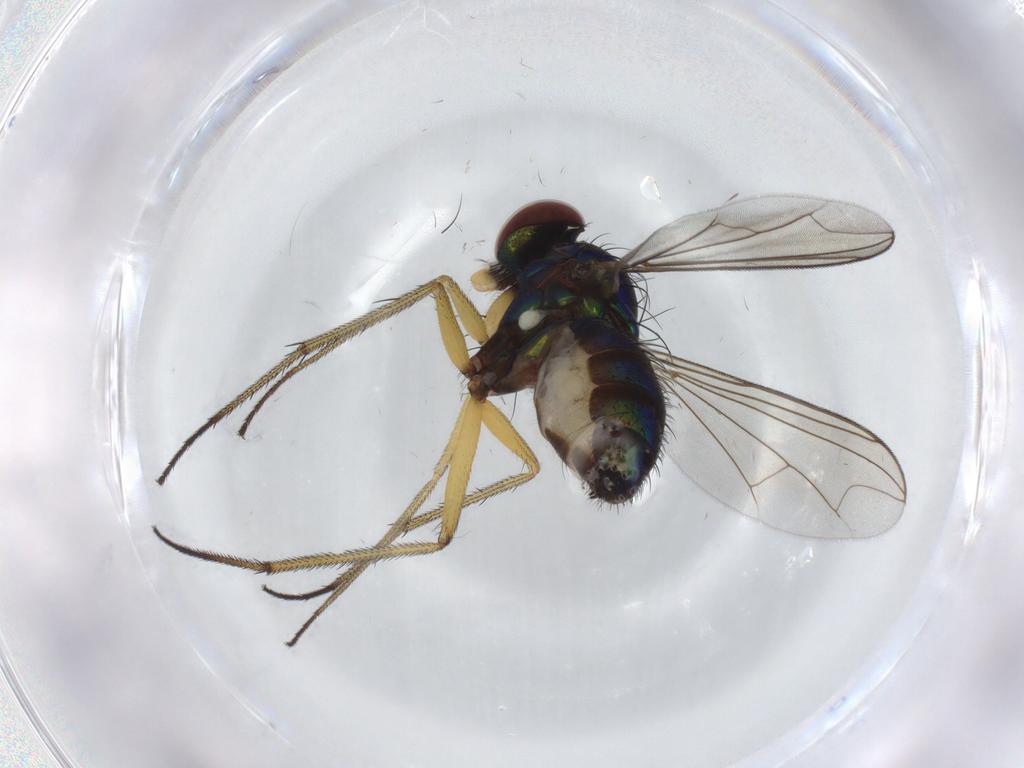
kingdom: Animalia
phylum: Arthropoda
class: Insecta
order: Diptera
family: Dolichopodidae
